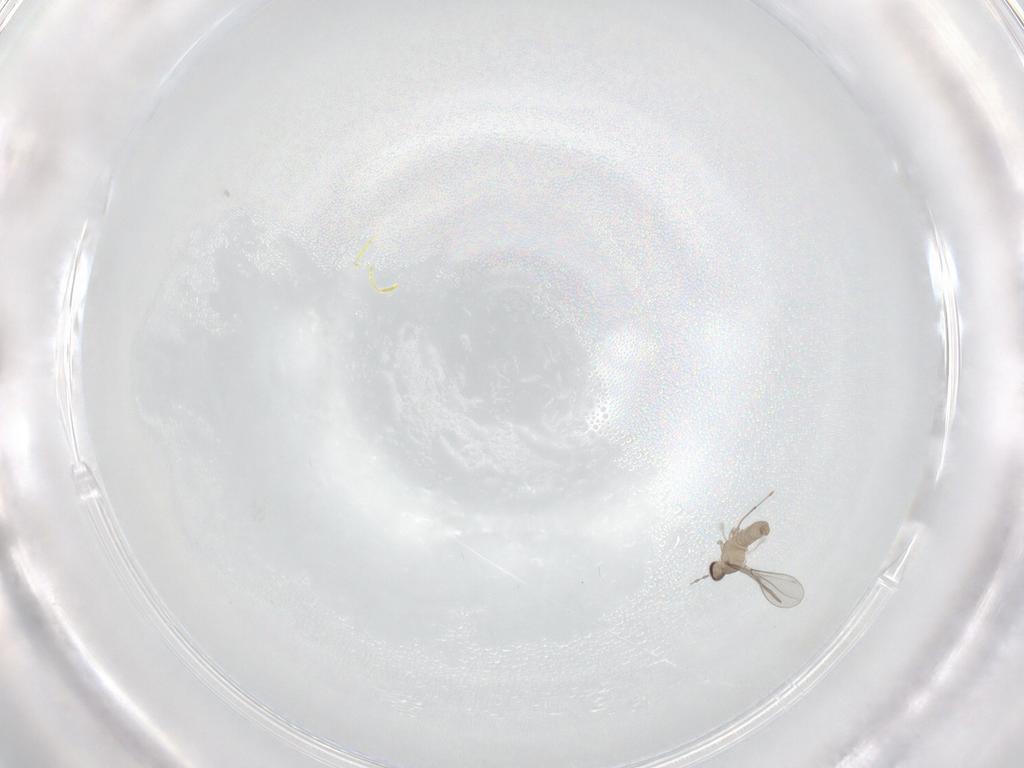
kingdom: Animalia
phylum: Arthropoda
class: Insecta
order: Diptera
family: Cecidomyiidae
